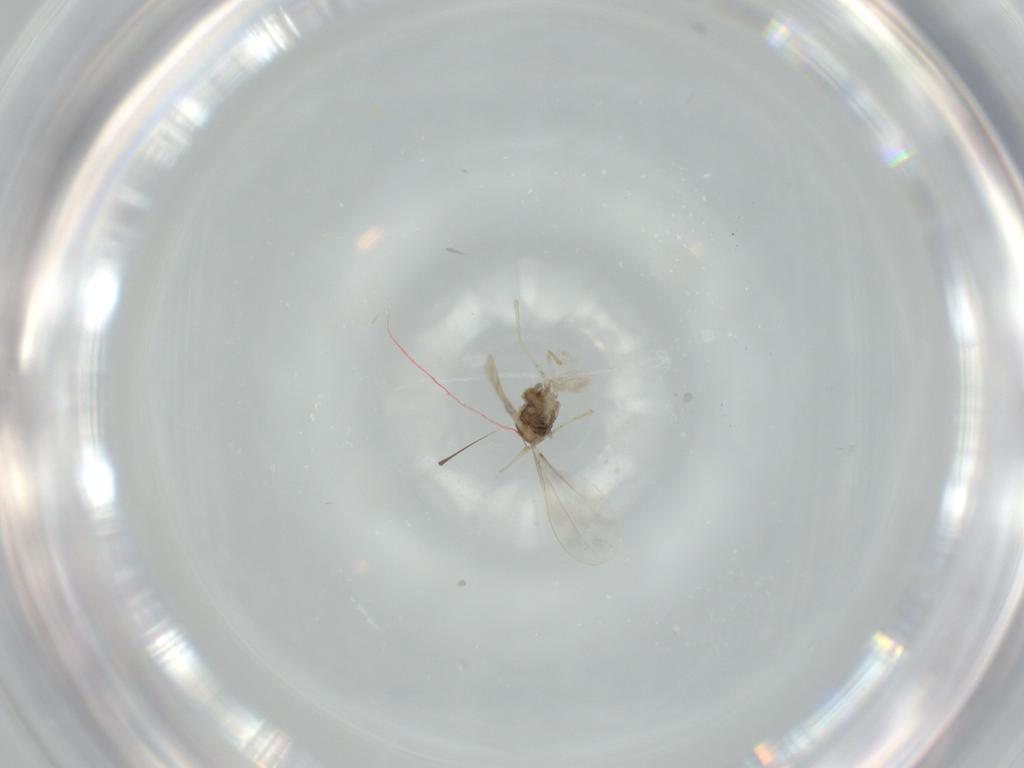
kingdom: Animalia
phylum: Arthropoda
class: Insecta
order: Diptera
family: Cecidomyiidae
